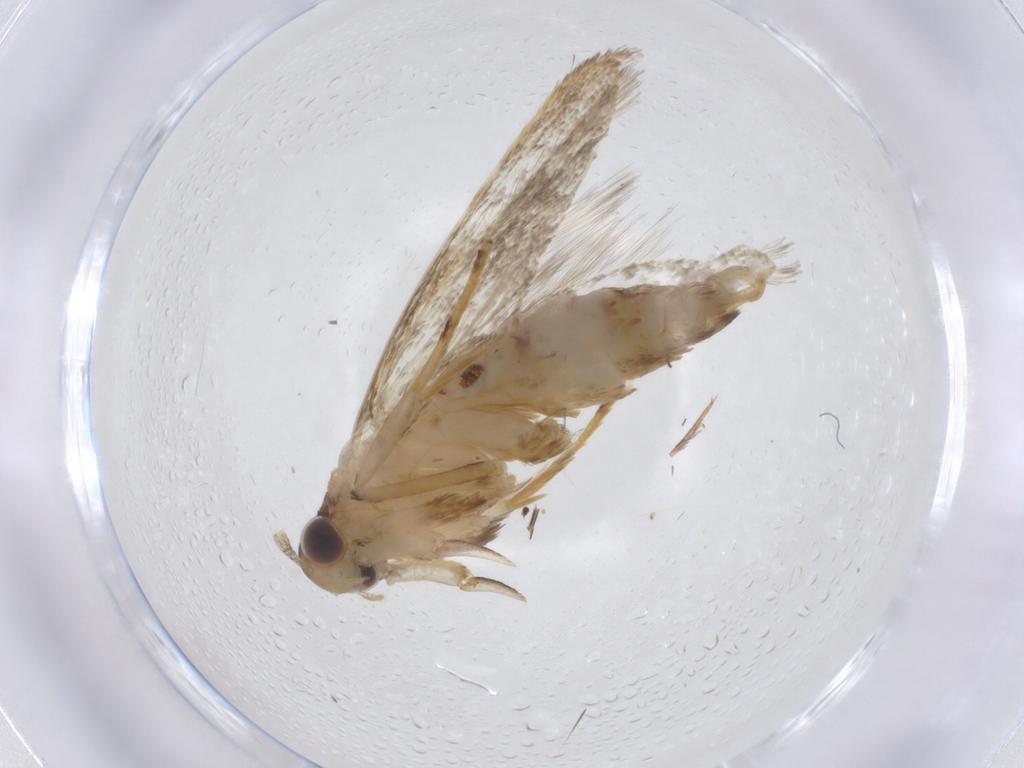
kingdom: Animalia
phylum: Arthropoda
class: Insecta
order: Lepidoptera
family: Lecithoceridae
